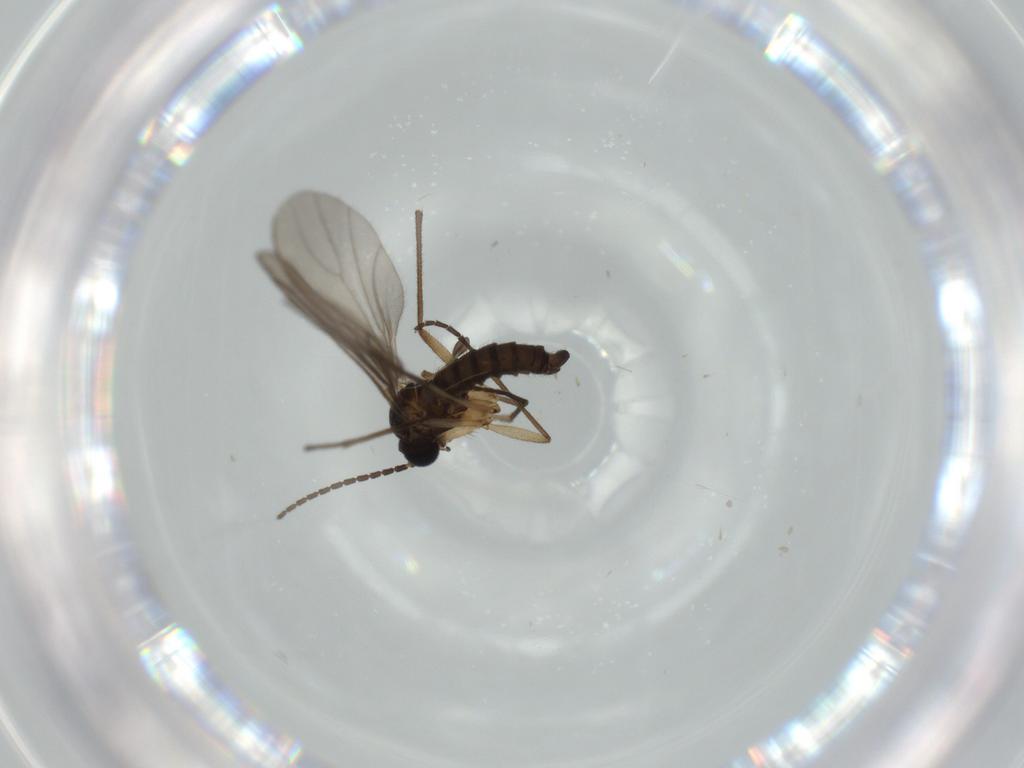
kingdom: Animalia
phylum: Arthropoda
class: Insecta
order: Diptera
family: Sciaridae
